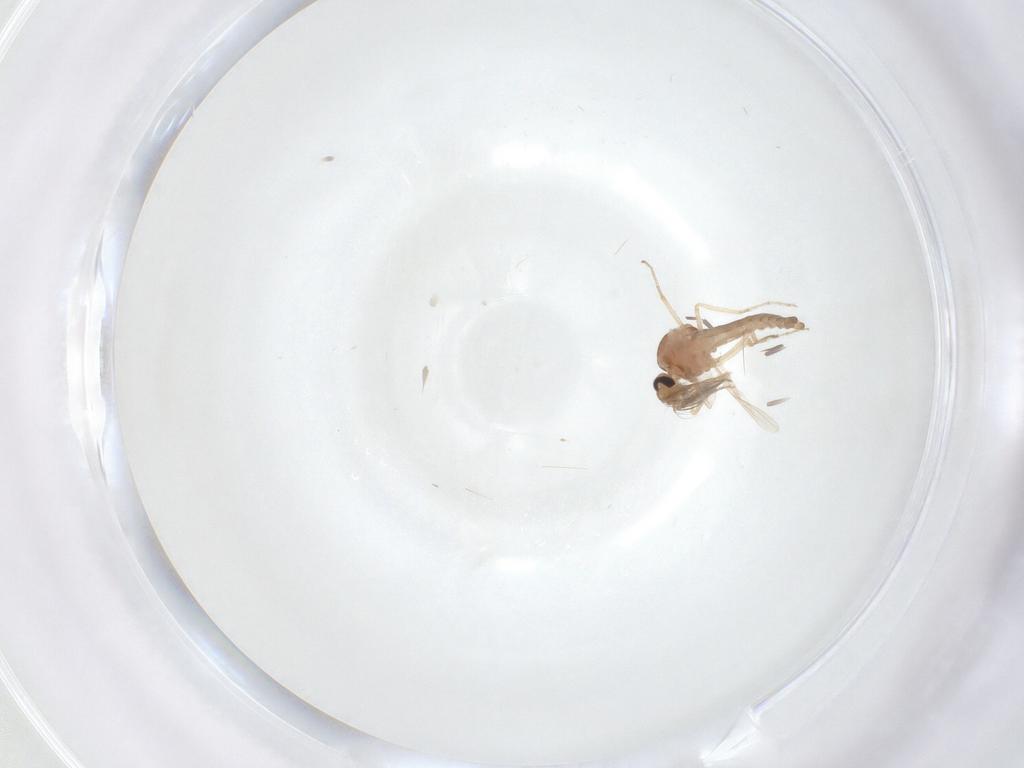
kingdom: Animalia
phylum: Arthropoda
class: Insecta
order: Diptera
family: Ceratopogonidae
